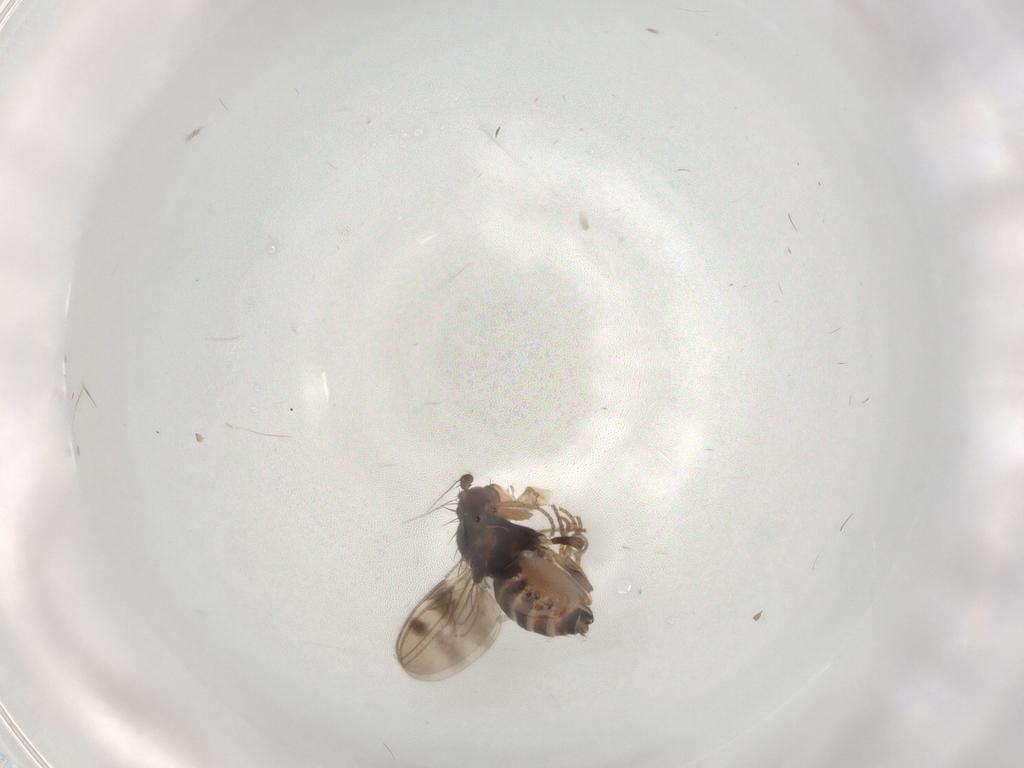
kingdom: Animalia
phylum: Arthropoda
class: Insecta
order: Diptera
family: Sphaeroceridae
